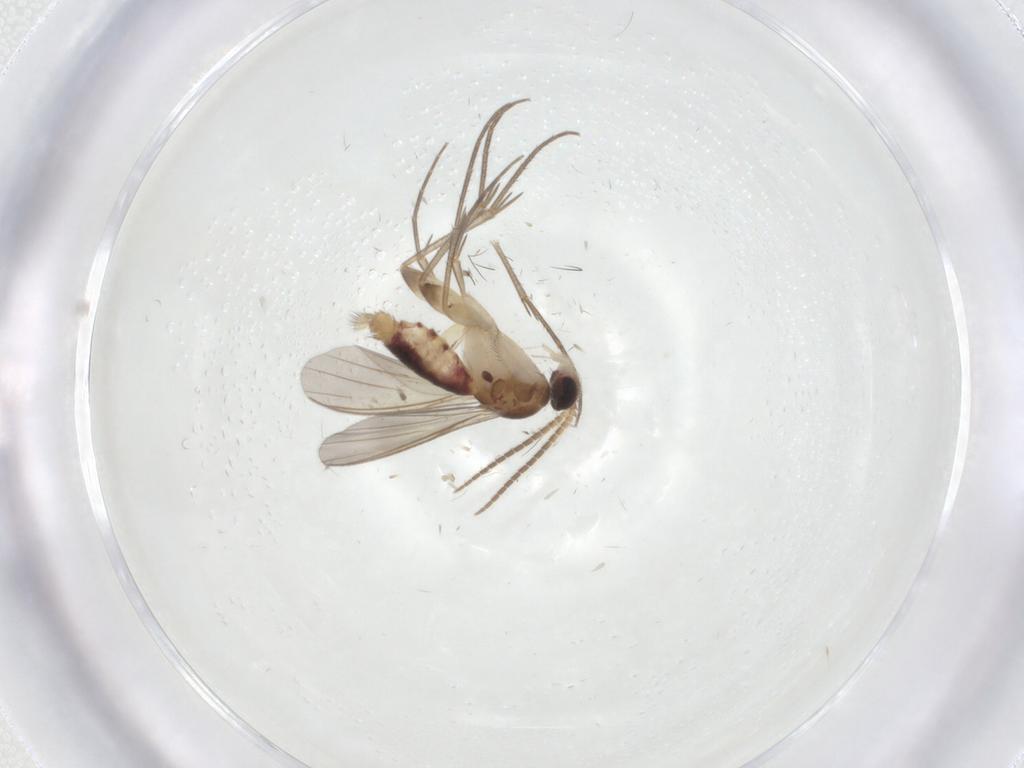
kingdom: Animalia
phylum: Arthropoda
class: Insecta
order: Diptera
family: Mycetophilidae
